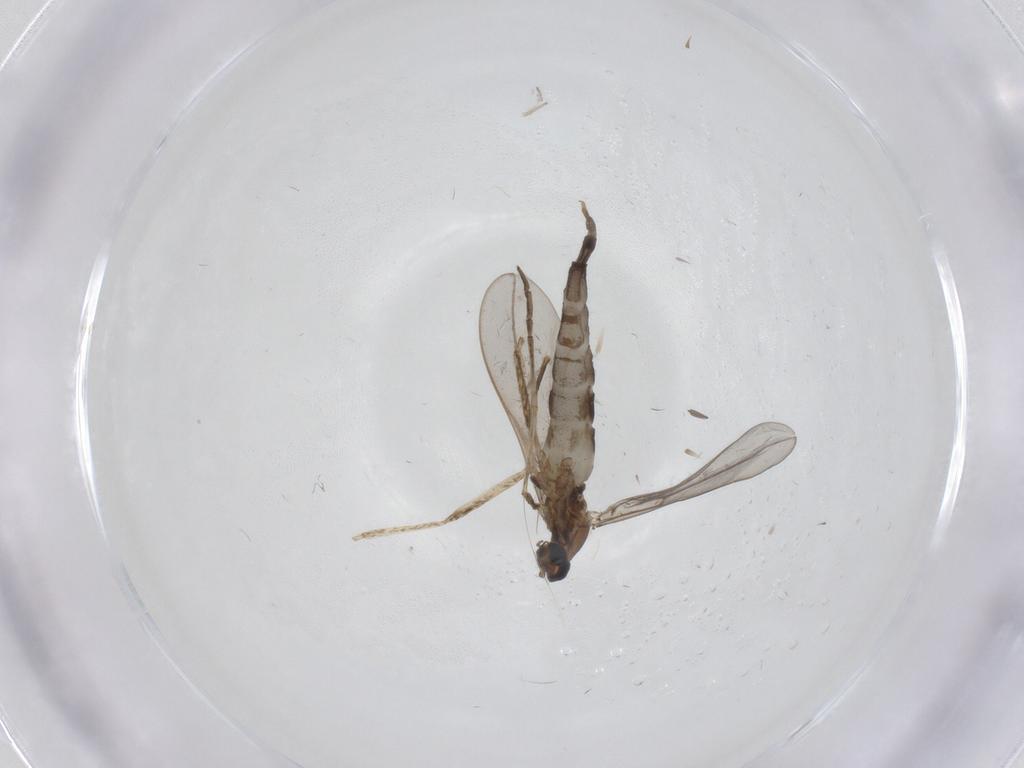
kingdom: Animalia
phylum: Arthropoda
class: Insecta
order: Diptera
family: Cecidomyiidae
